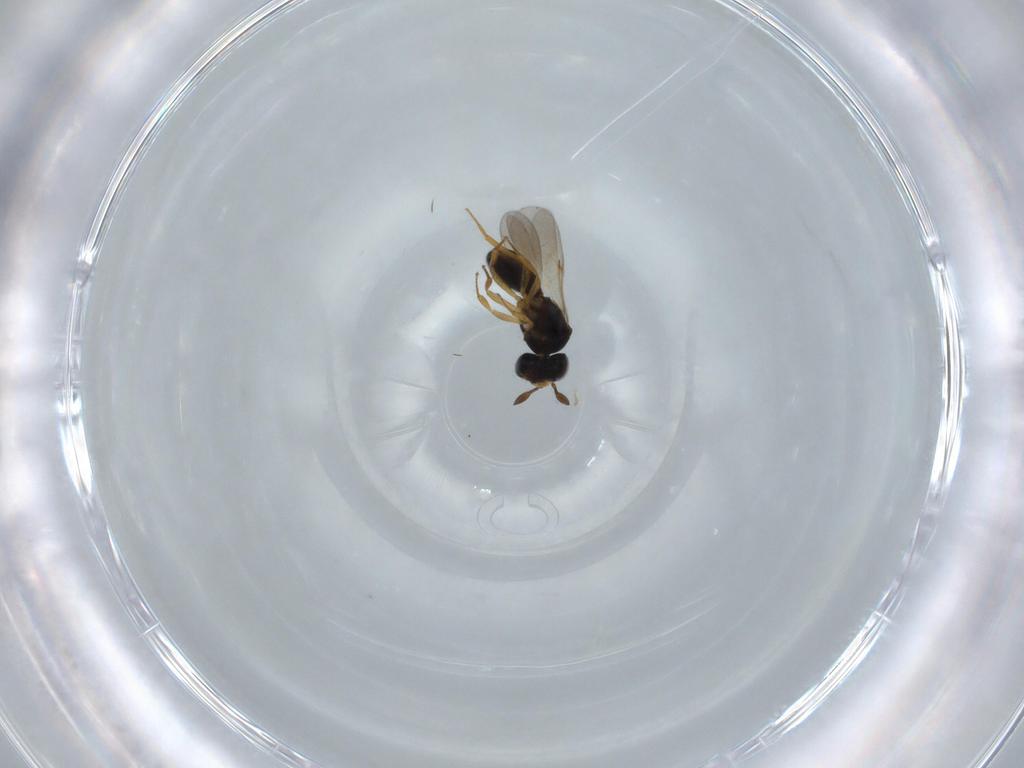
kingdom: Animalia
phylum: Arthropoda
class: Insecta
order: Hymenoptera
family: Scelionidae
